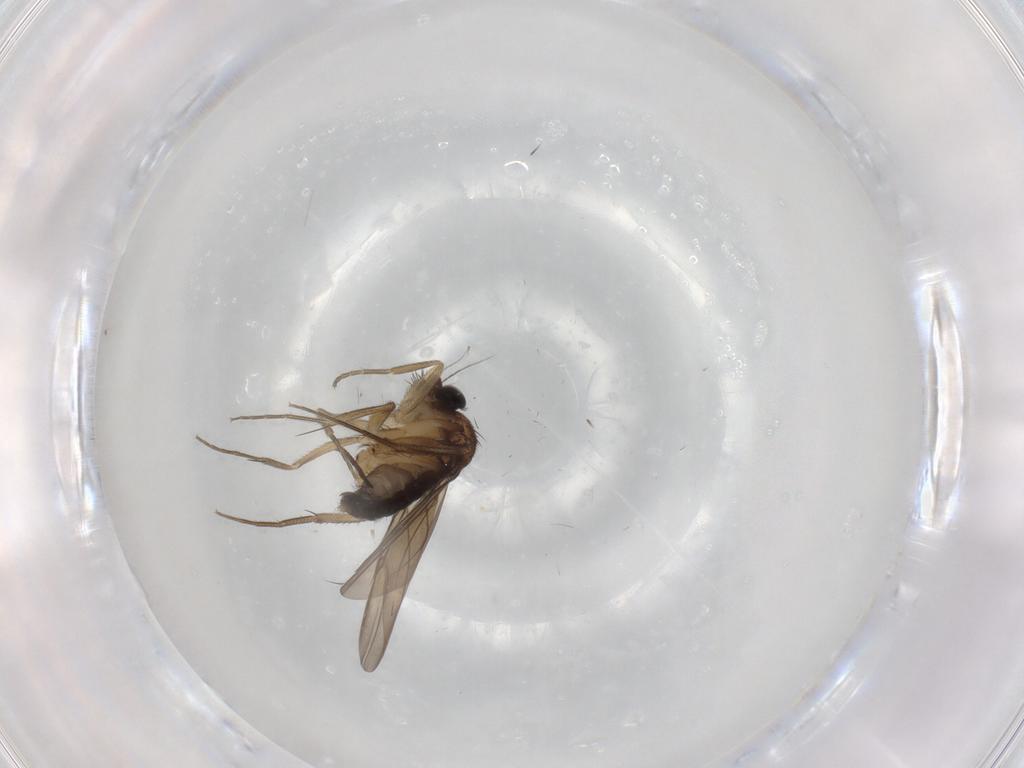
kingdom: Animalia
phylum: Arthropoda
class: Insecta
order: Diptera
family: Phoridae
